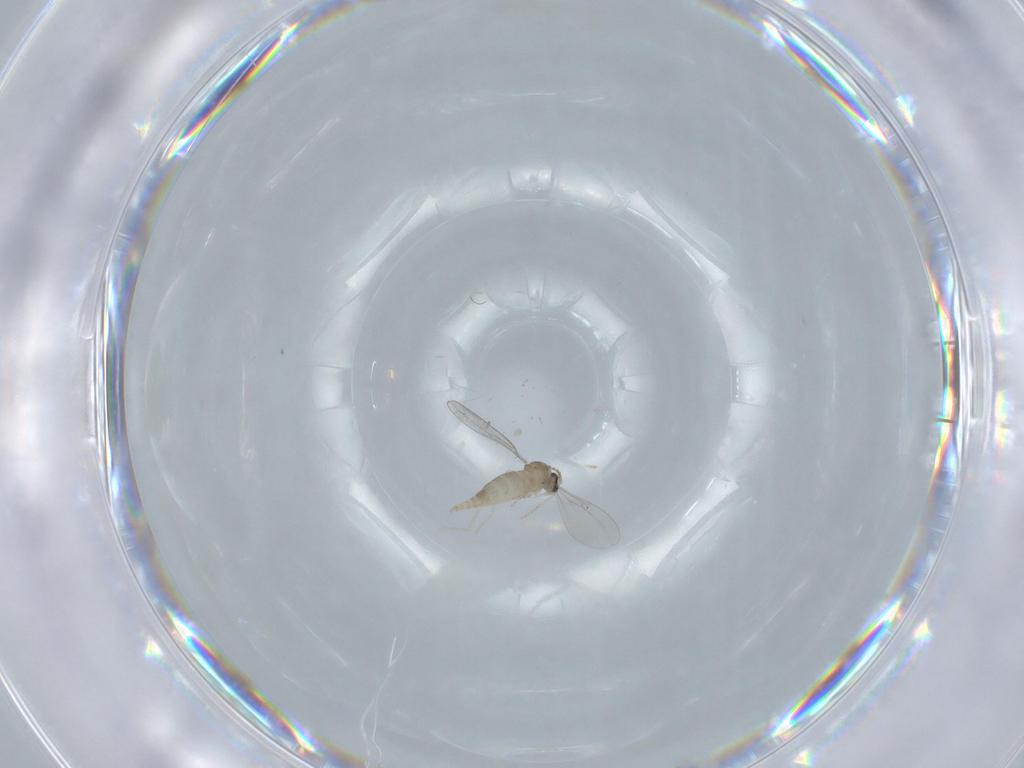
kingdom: Animalia
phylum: Arthropoda
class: Insecta
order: Diptera
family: Cecidomyiidae
